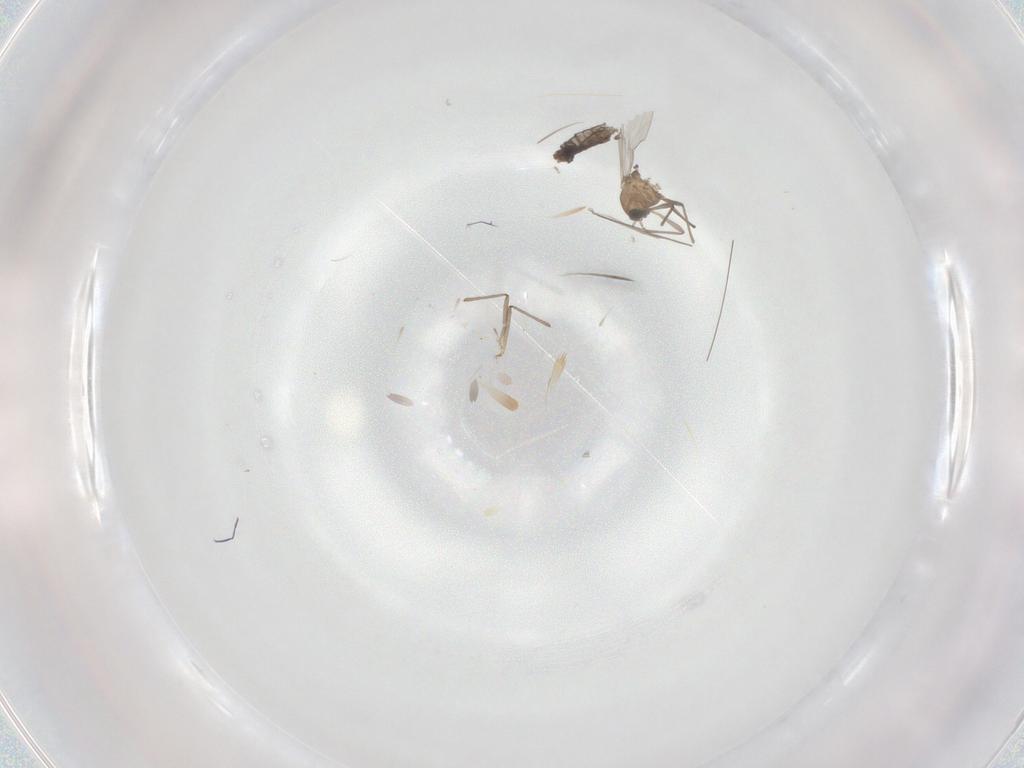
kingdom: Animalia
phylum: Arthropoda
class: Insecta
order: Diptera
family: Chironomidae
